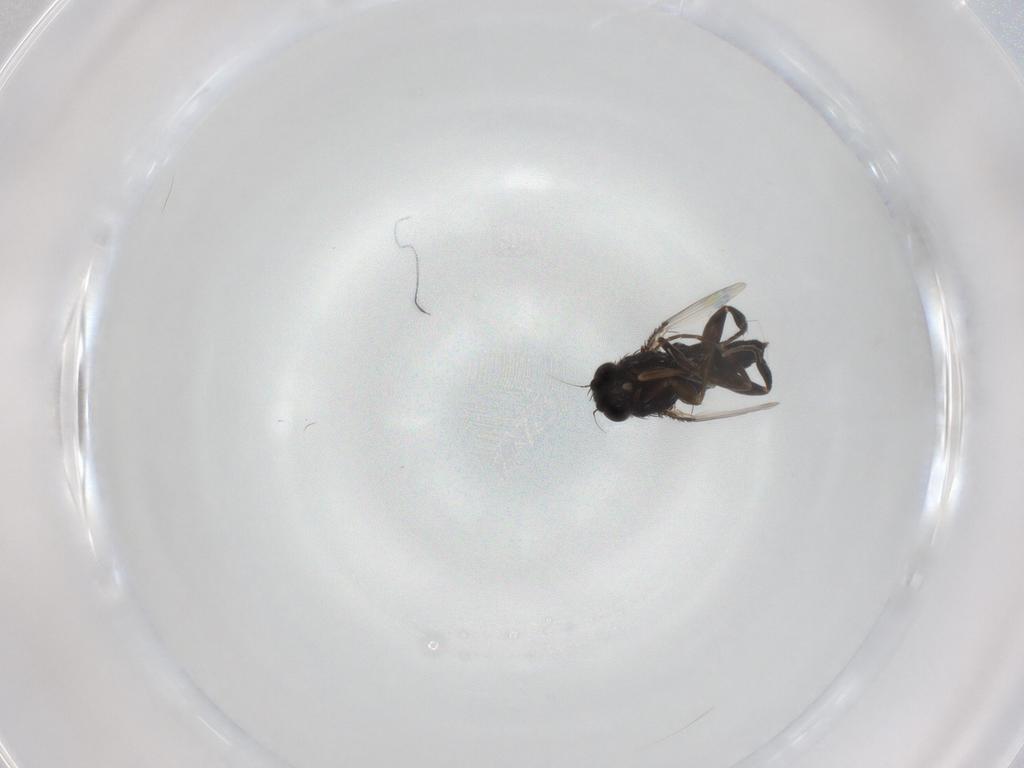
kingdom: Animalia
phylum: Arthropoda
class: Insecta
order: Diptera
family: Phoridae
